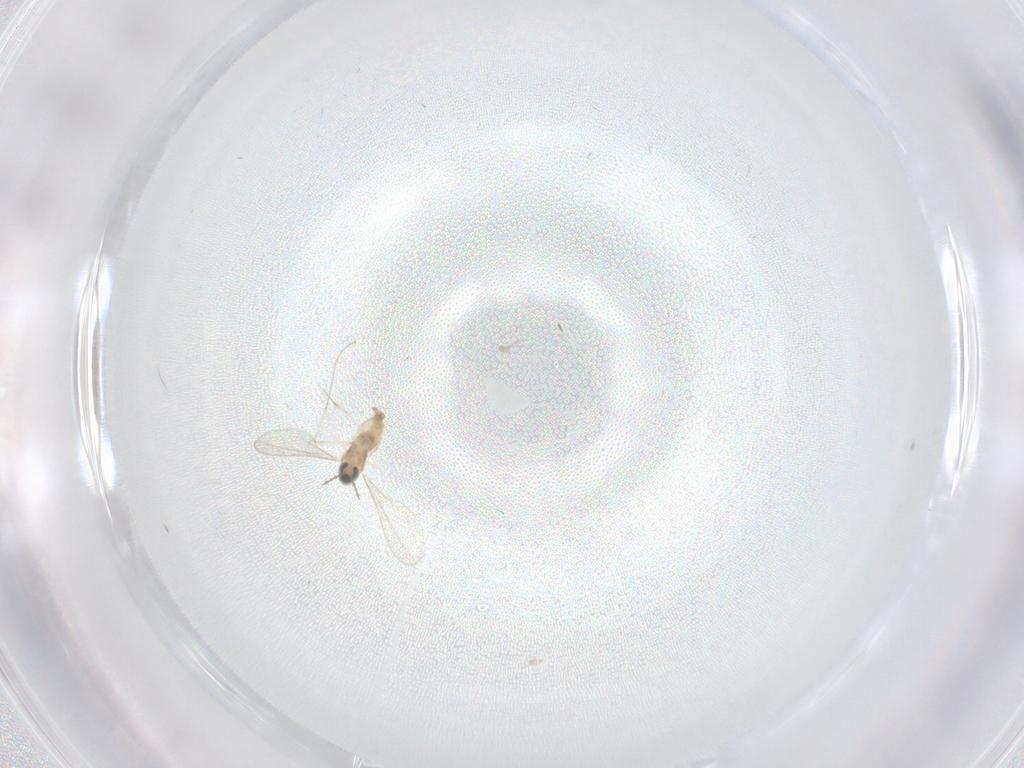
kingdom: Animalia
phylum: Arthropoda
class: Insecta
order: Diptera
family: Cecidomyiidae
